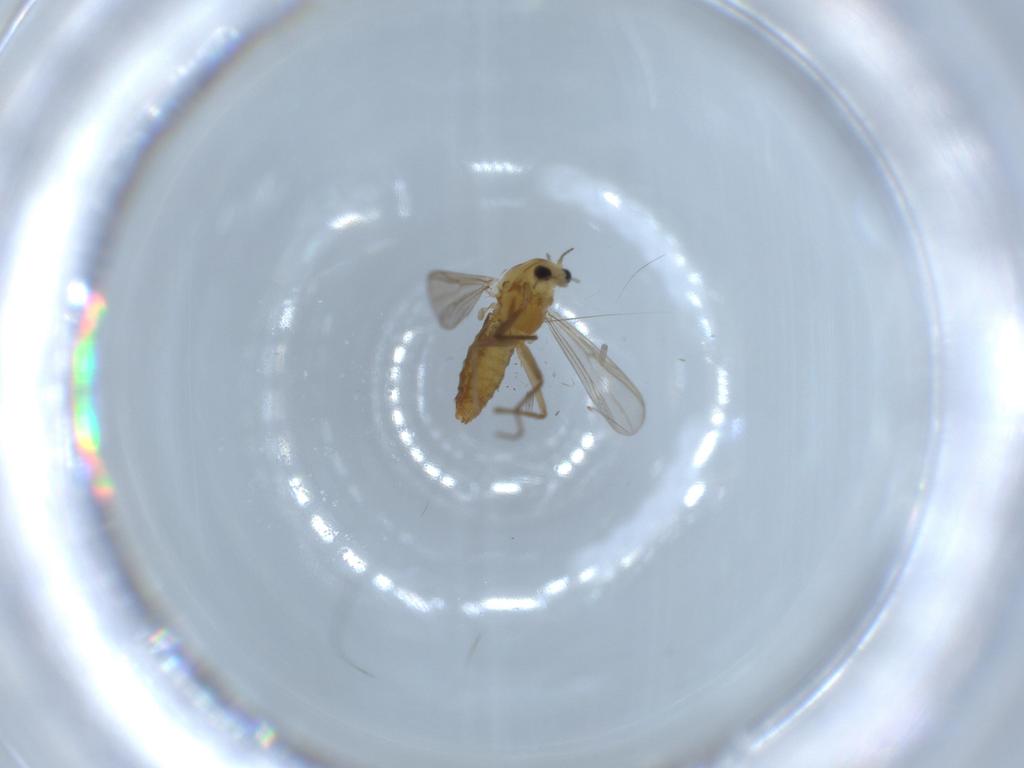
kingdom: Animalia
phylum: Arthropoda
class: Insecta
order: Diptera
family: Chironomidae
